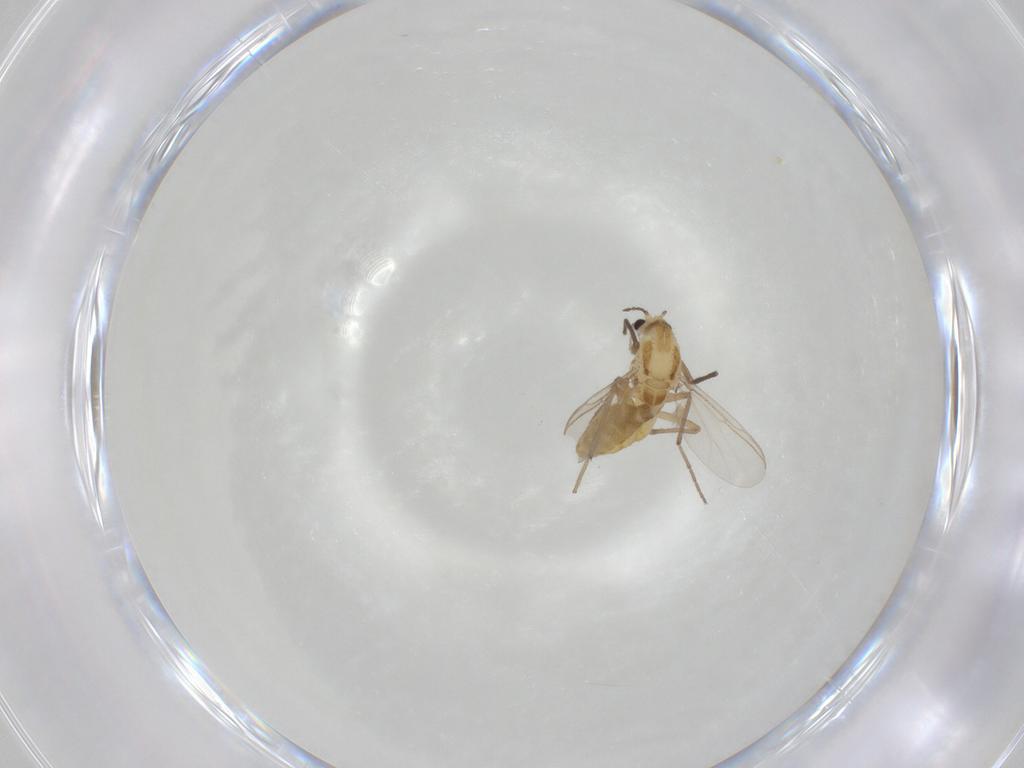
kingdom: Animalia
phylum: Arthropoda
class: Insecta
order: Diptera
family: Chironomidae
